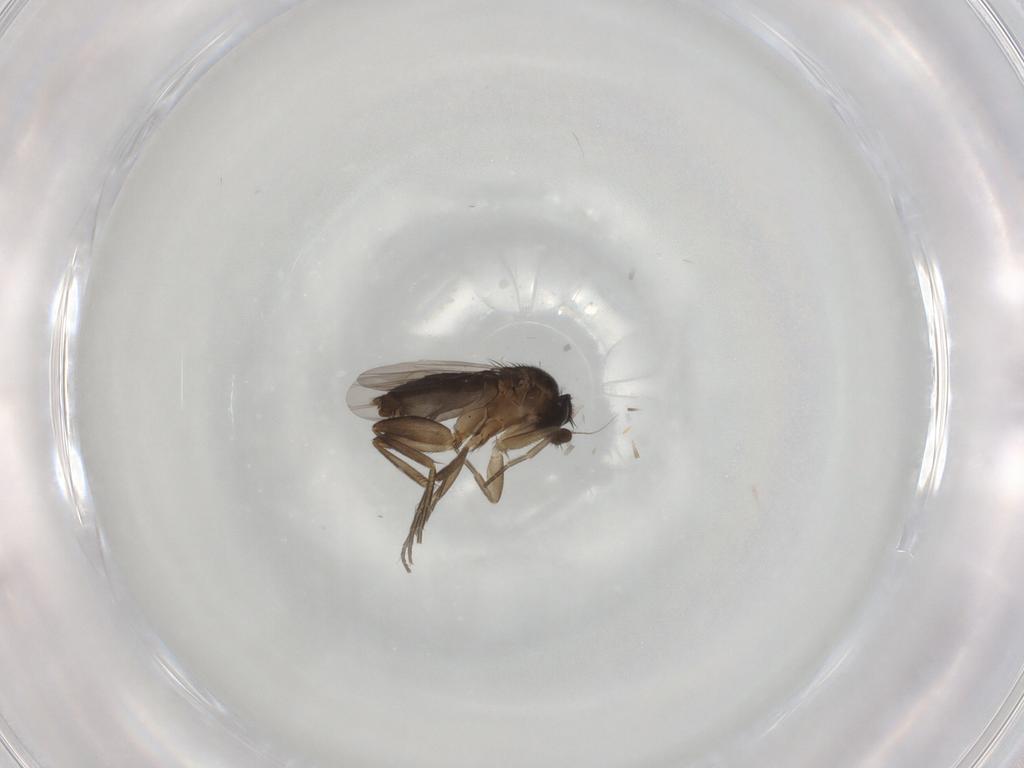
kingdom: Animalia
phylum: Arthropoda
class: Insecta
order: Diptera
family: Phoridae
